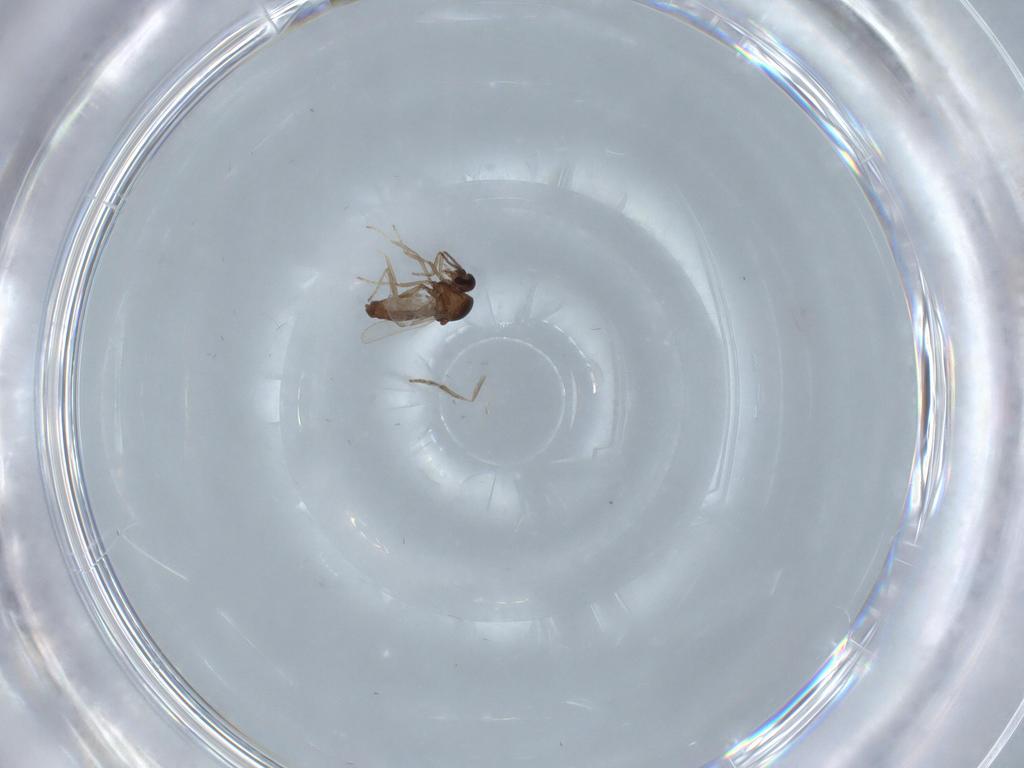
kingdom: Animalia
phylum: Arthropoda
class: Insecta
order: Diptera
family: Ceratopogonidae
